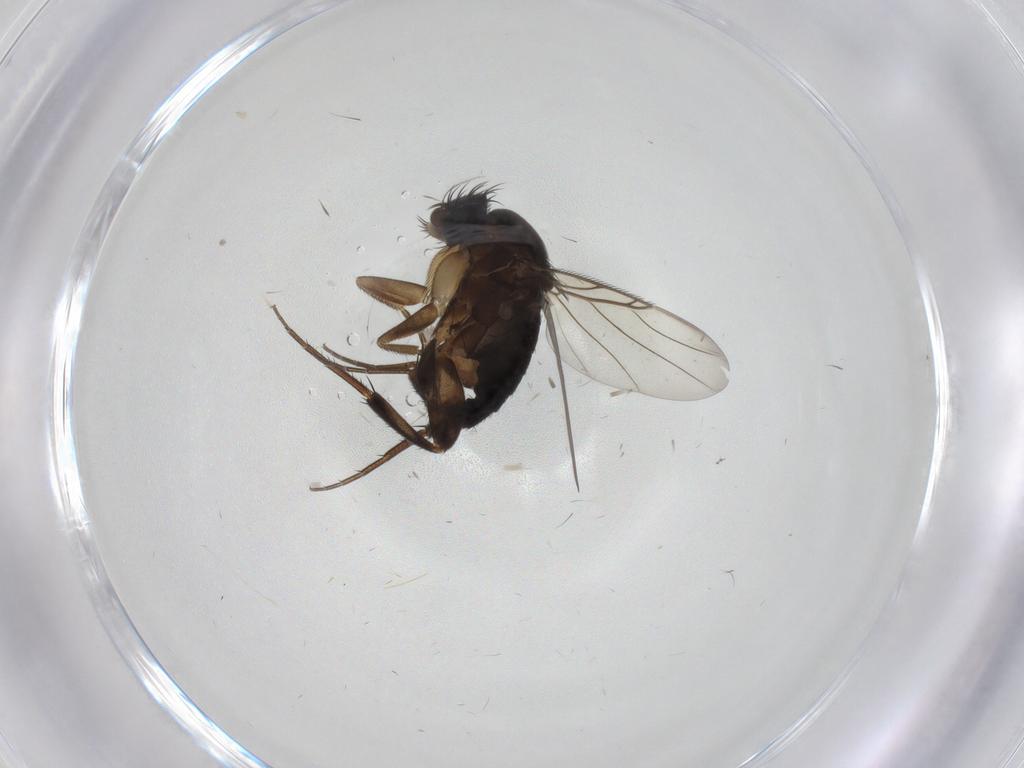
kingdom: Animalia
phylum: Arthropoda
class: Insecta
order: Diptera
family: Phoridae
